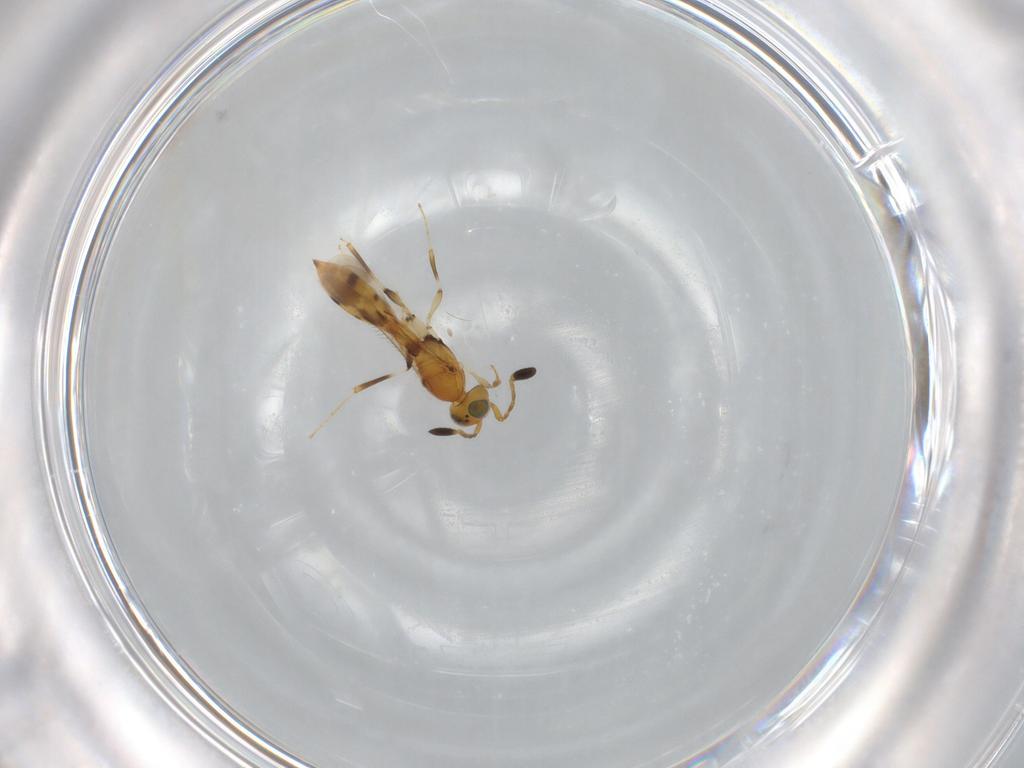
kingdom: Animalia
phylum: Arthropoda
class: Insecta
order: Hymenoptera
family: Scelionidae
